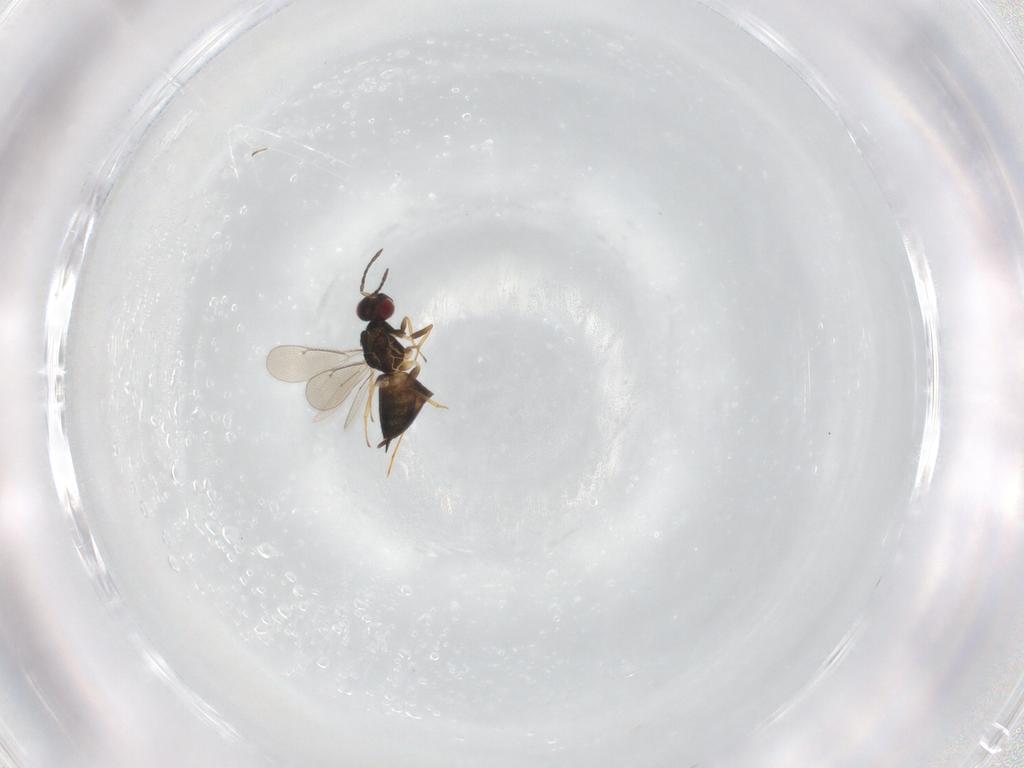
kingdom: Animalia
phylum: Arthropoda
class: Insecta
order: Hymenoptera
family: Eulophidae
